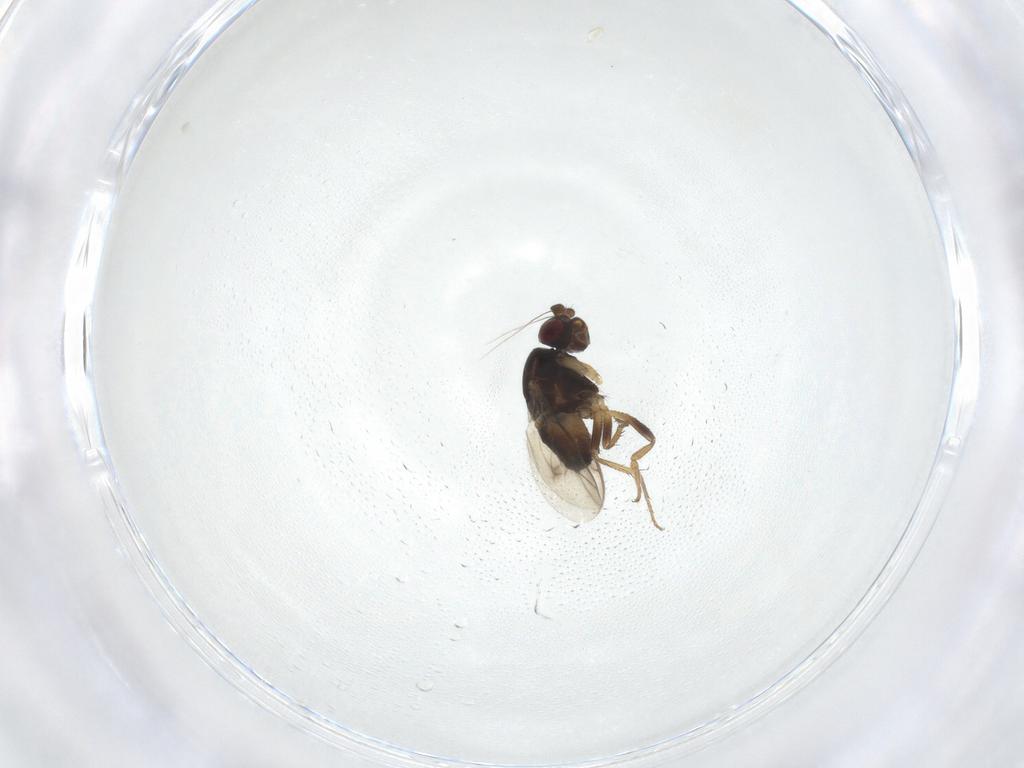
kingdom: Animalia
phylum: Arthropoda
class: Insecta
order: Diptera
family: Sphaeroceridae
